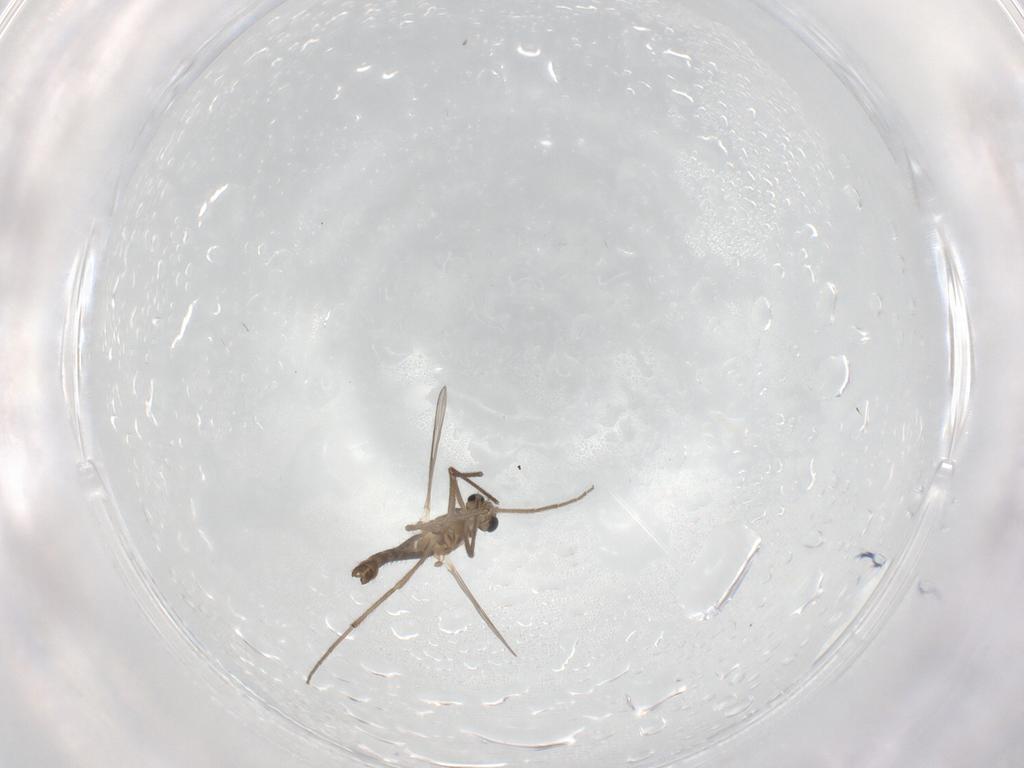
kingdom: Animalia
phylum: Arthropoda
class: Insecta
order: Diptera
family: Chironomidae
